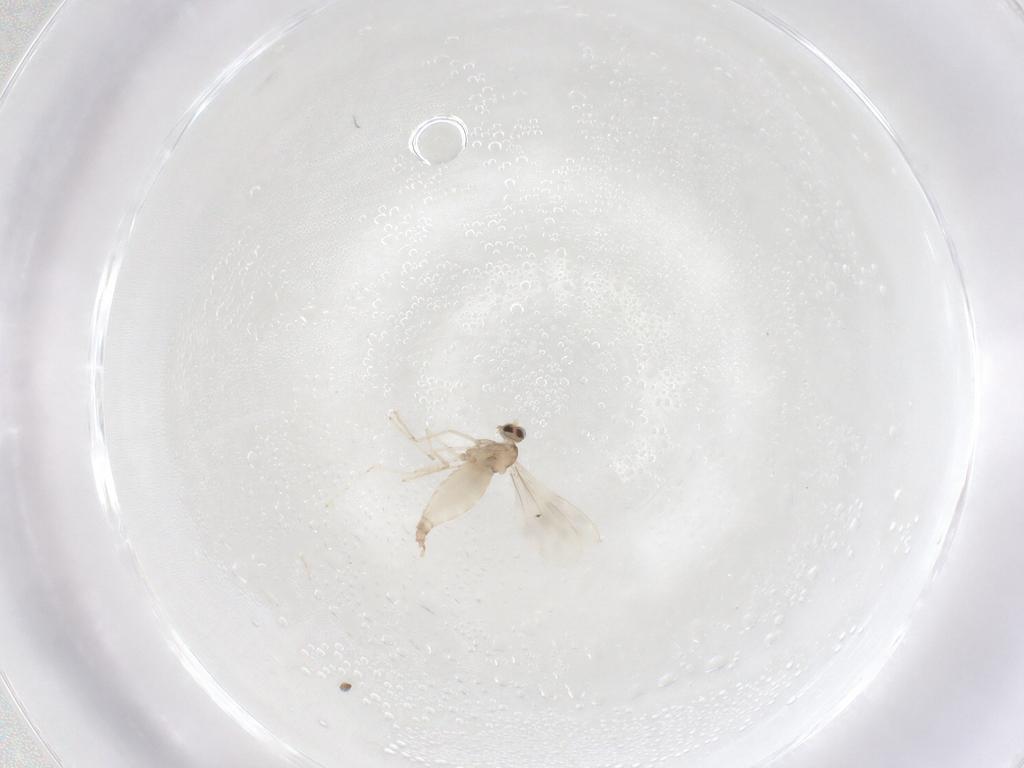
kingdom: Animalia
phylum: Arthropoda
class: Insecta
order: Diptera
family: Cecidomyiidae
